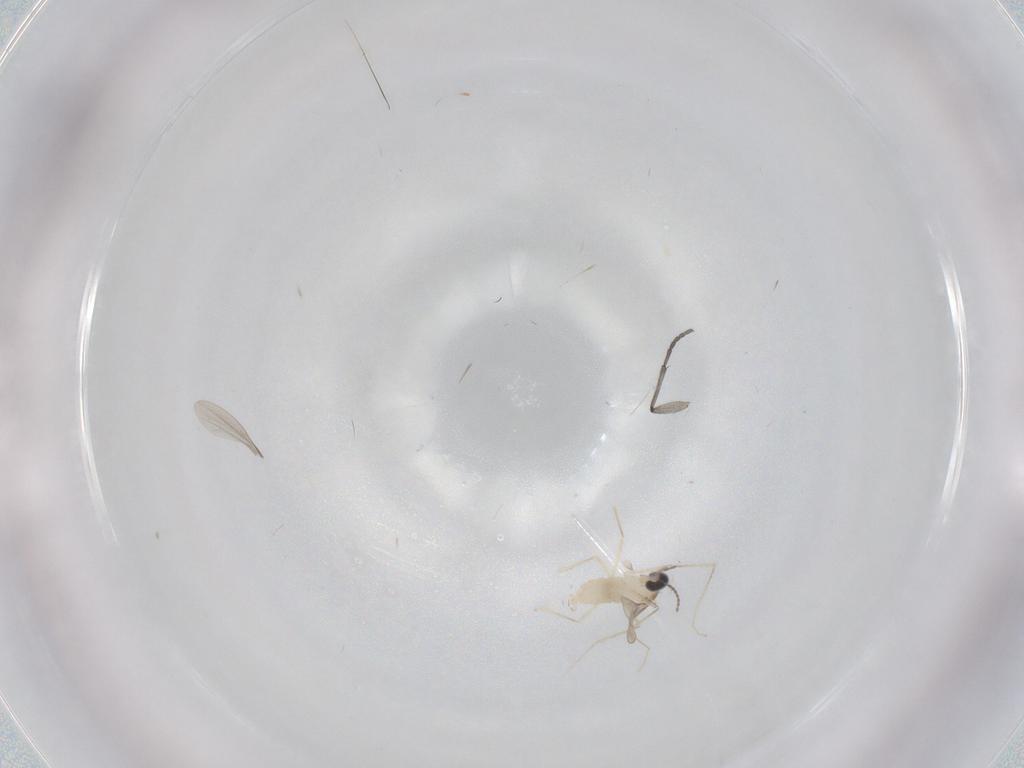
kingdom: Animalia
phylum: Arthropoda
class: Insecta
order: Diptera
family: Sciaridae
